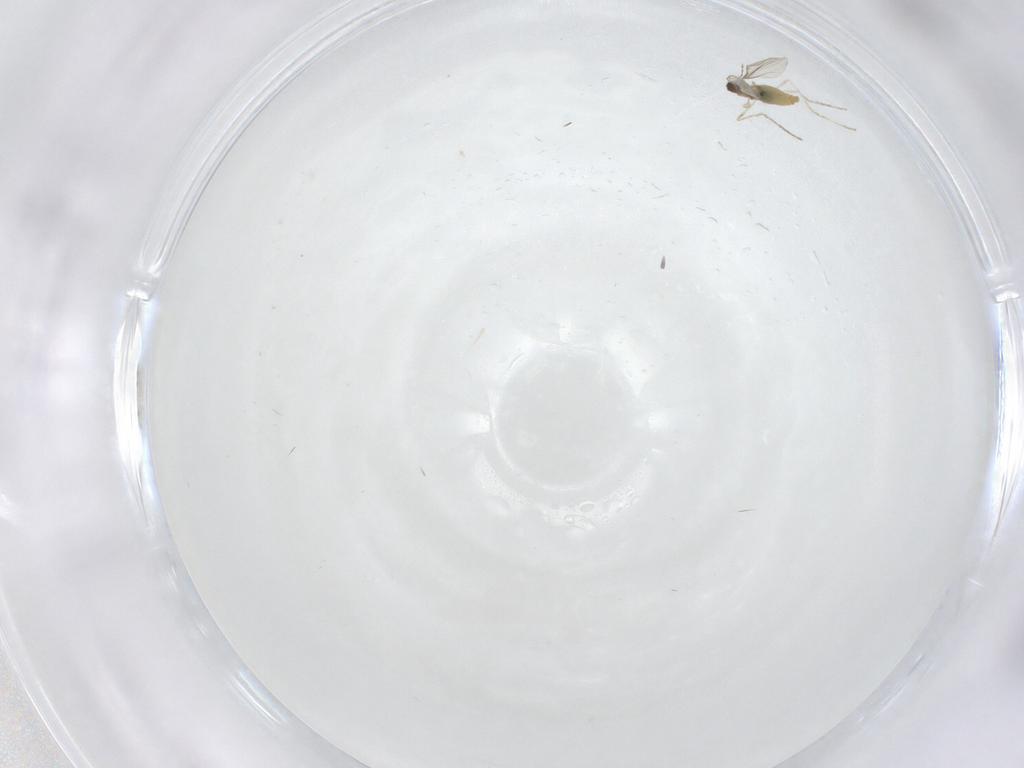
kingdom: Animalia
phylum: Arthropoda
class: Insecta
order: Diptera
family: Cecidomyiidae
